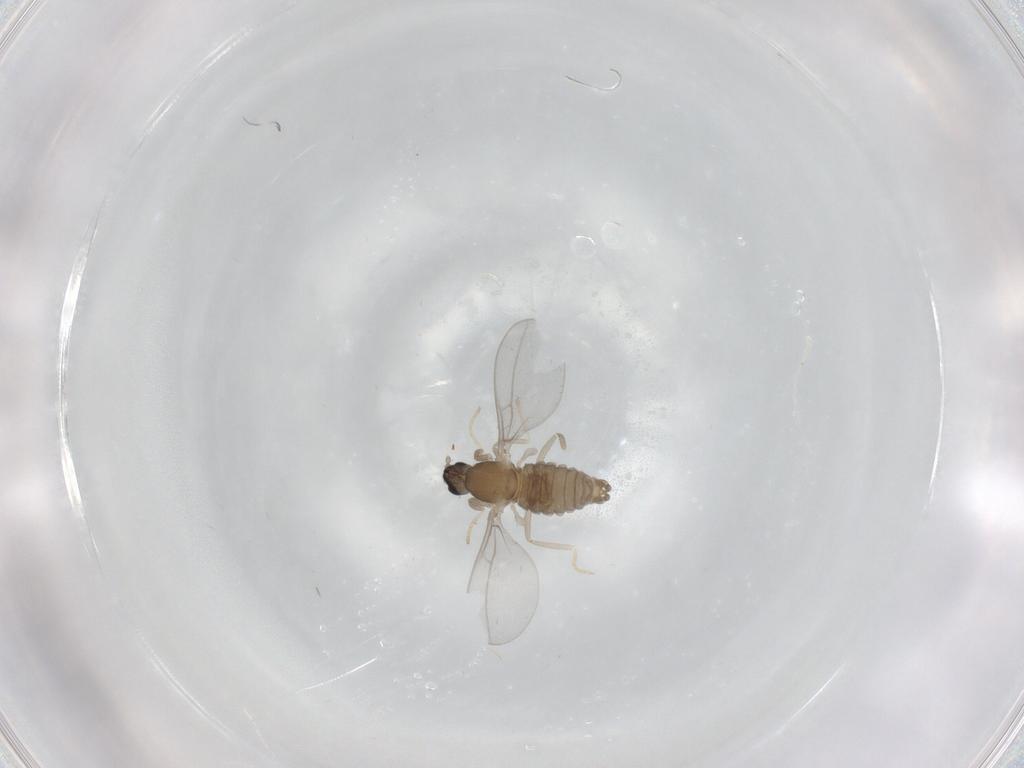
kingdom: Animalia
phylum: Arthropoda
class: Insecta
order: Diptera
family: Cecidomyiidae
